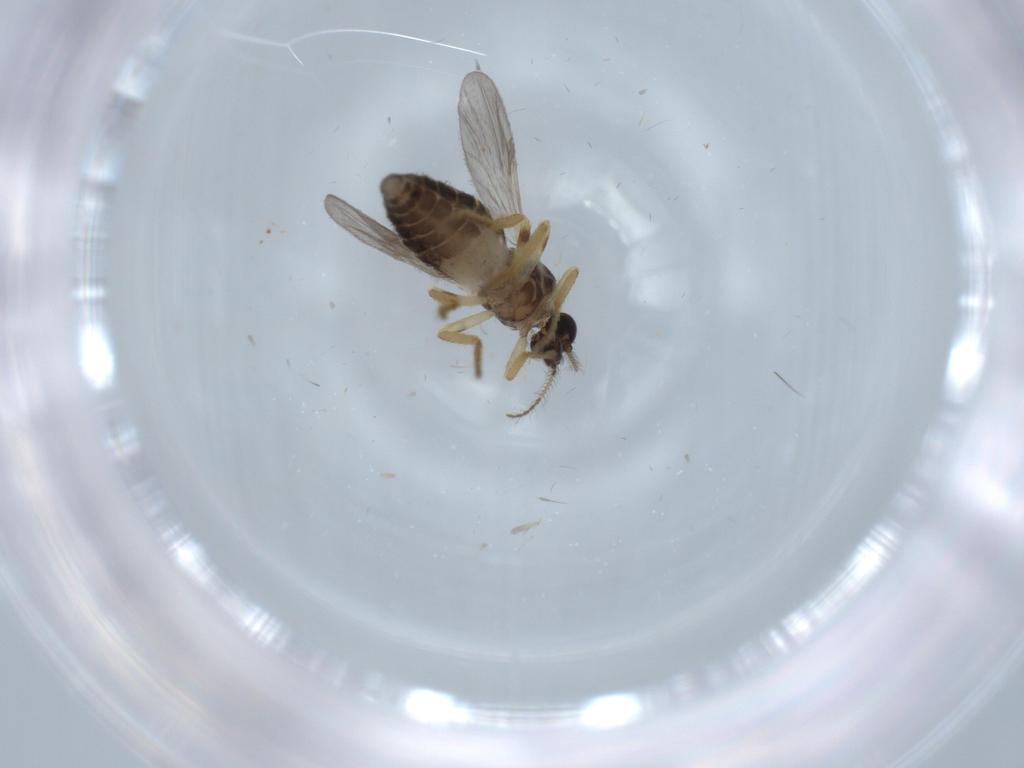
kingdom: Animalia
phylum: Arthropoda
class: Insecta
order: Diptera
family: Ceratopogonidae
